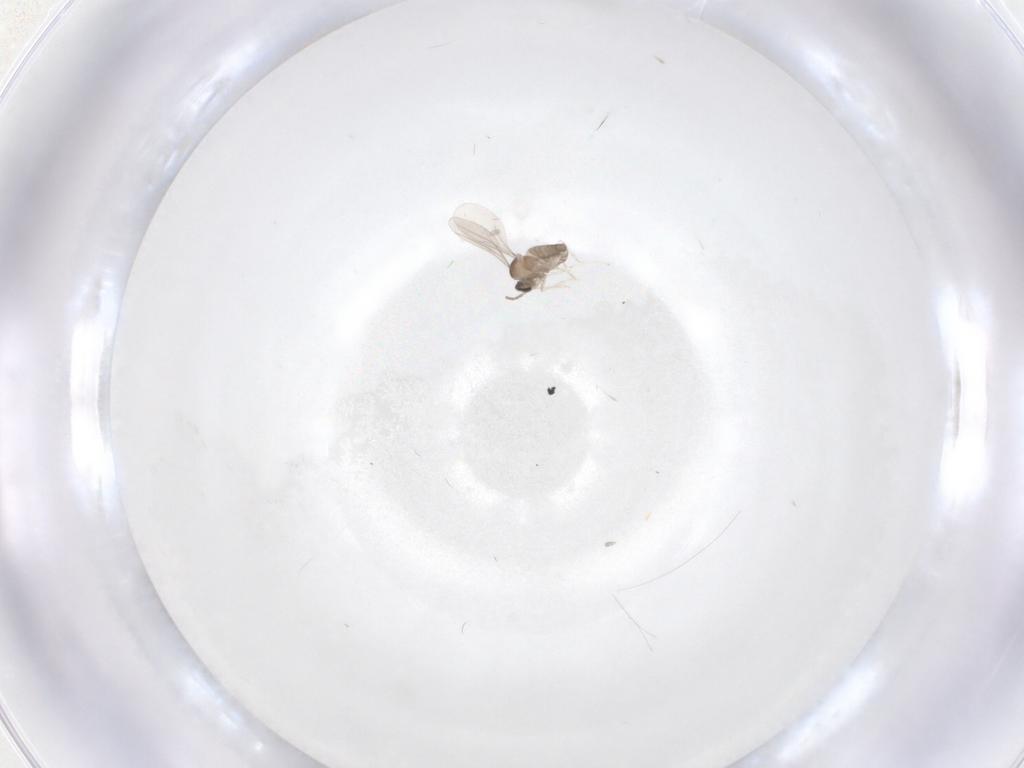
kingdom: Animalia
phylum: Arthropoda
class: Insecta
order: Diptera
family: Cecidomyiidae
